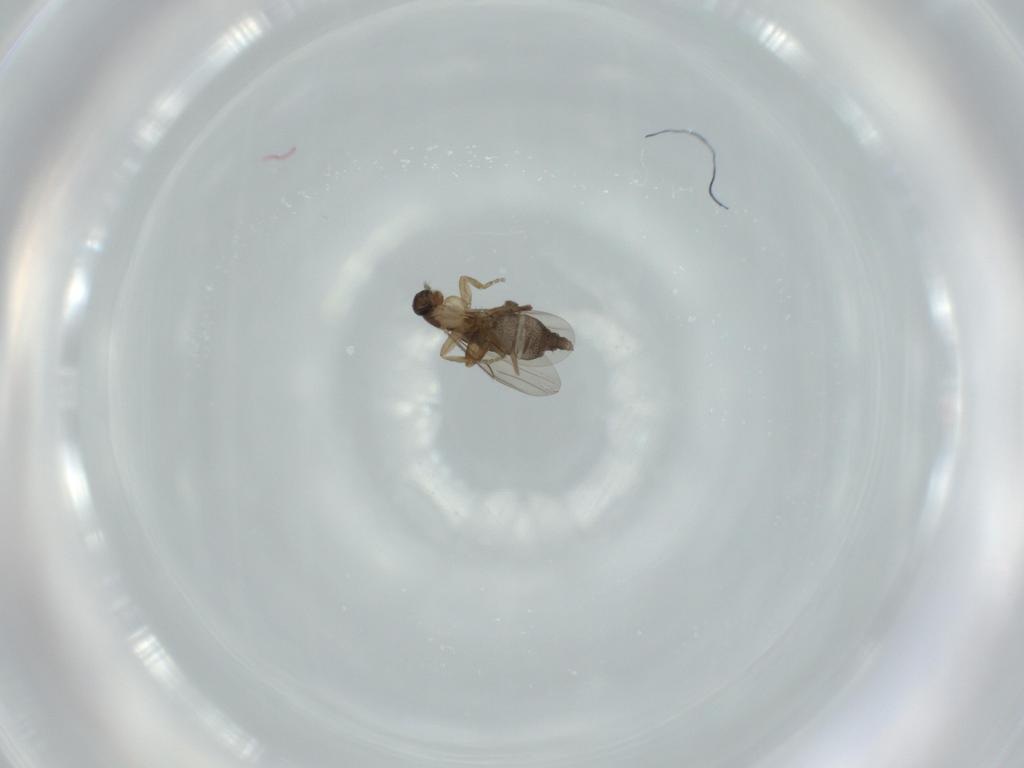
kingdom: Animalia
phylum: Arthropoda
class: Insecta
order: Diptera
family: Phoridae
